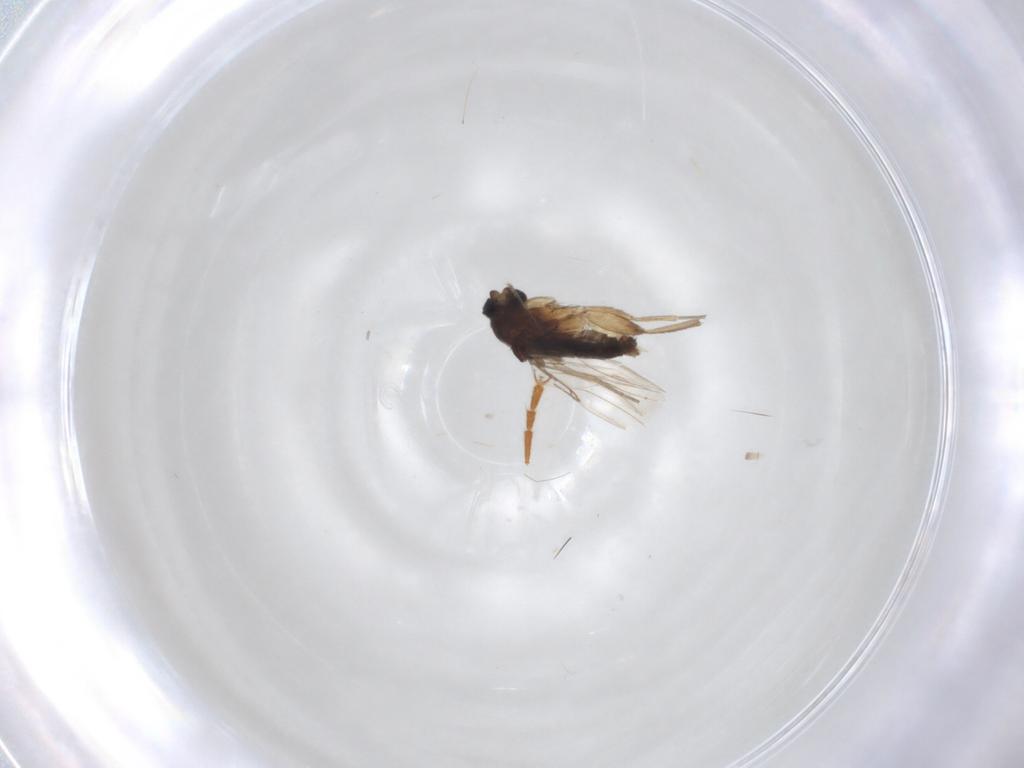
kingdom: Animalia
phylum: Arthropoda
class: Insecta
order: Diptera
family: Phoridae
